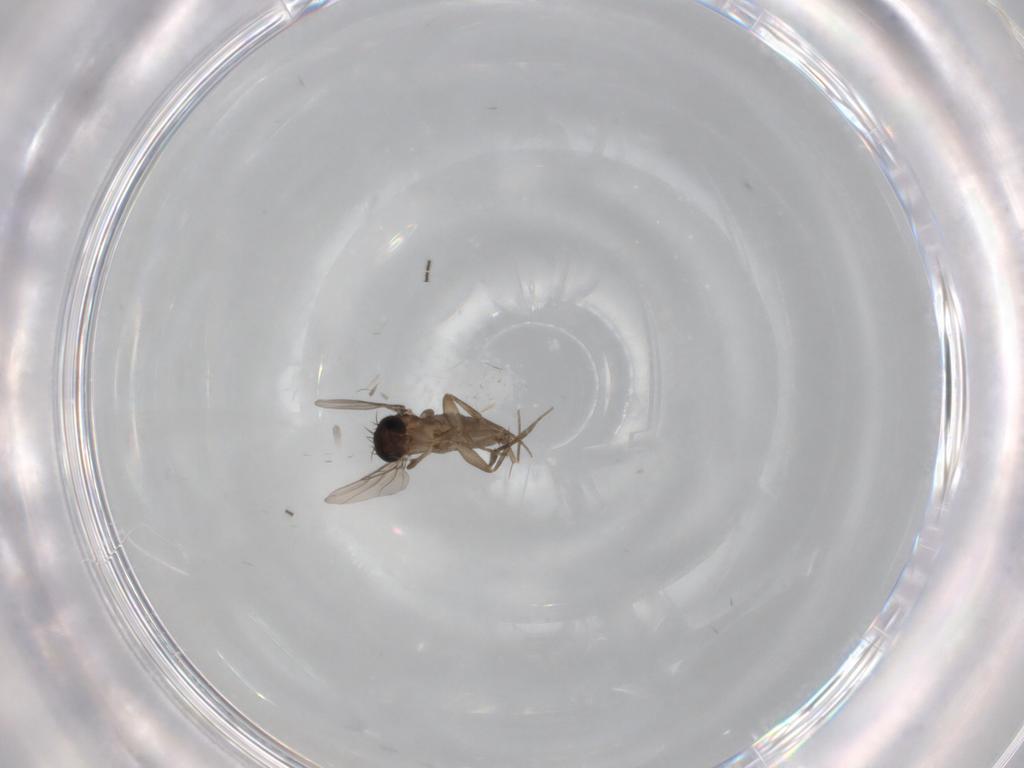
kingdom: Animalia
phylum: Arthropoda
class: Insecta
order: Diptera
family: Phoridae
